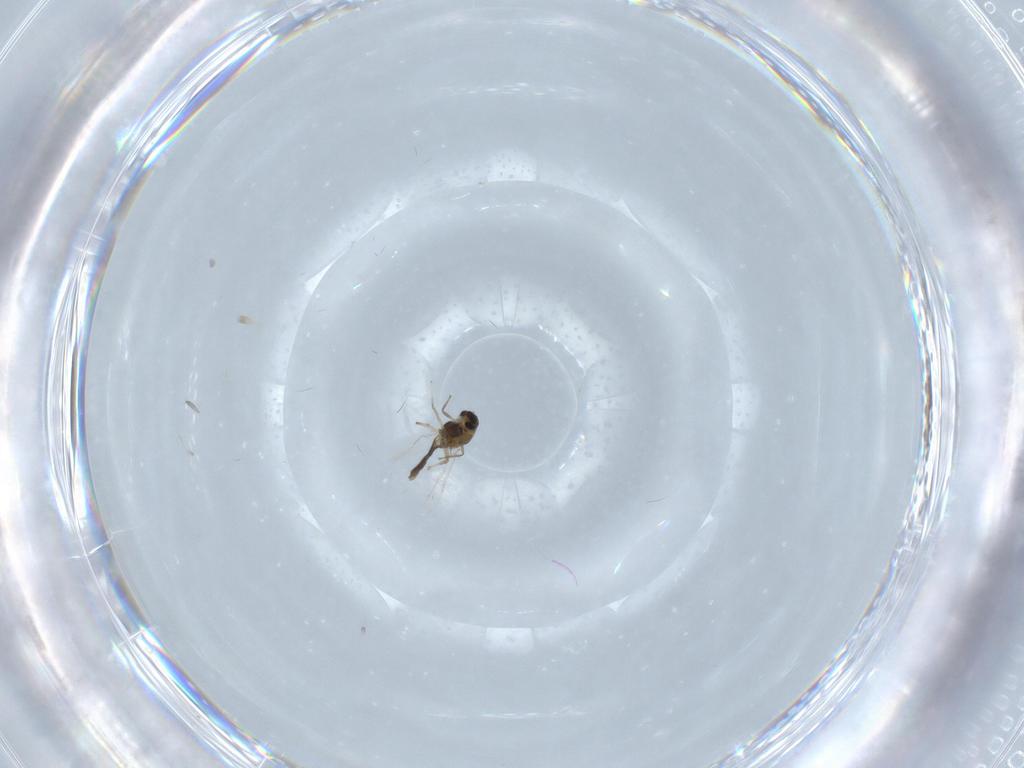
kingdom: Animalia
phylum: Arthropoda
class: Insecta
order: Diptera
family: Chironomidae
